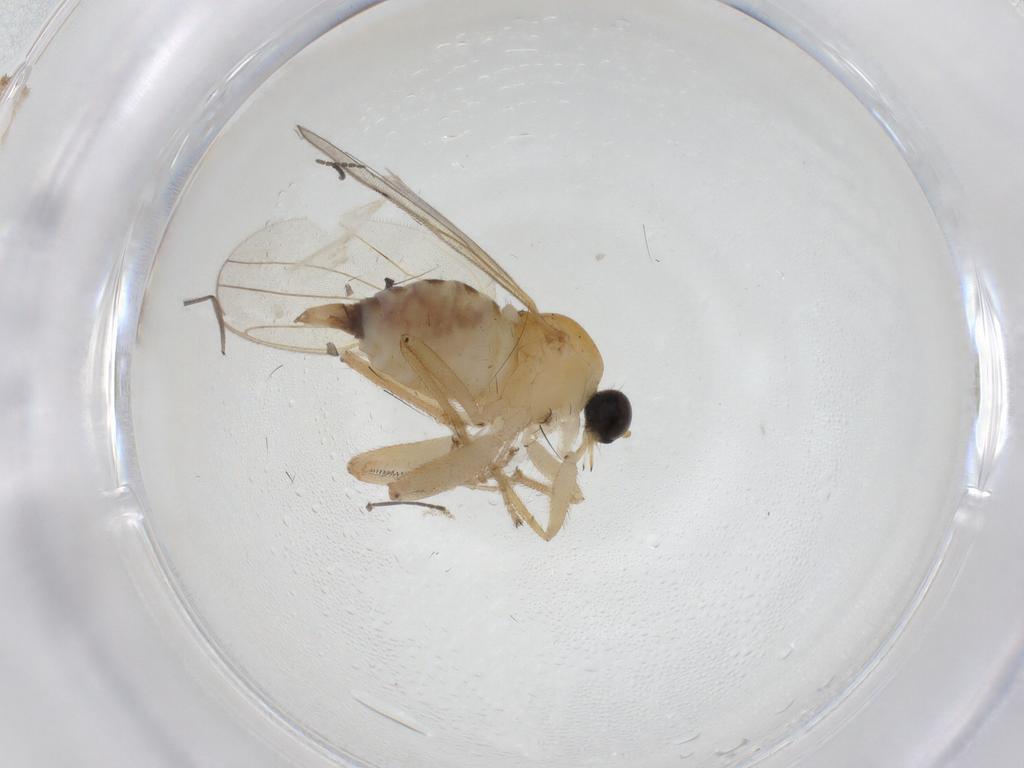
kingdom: Animalia
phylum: Arthropoda
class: Insecta
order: Diptera
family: Hybotidae
